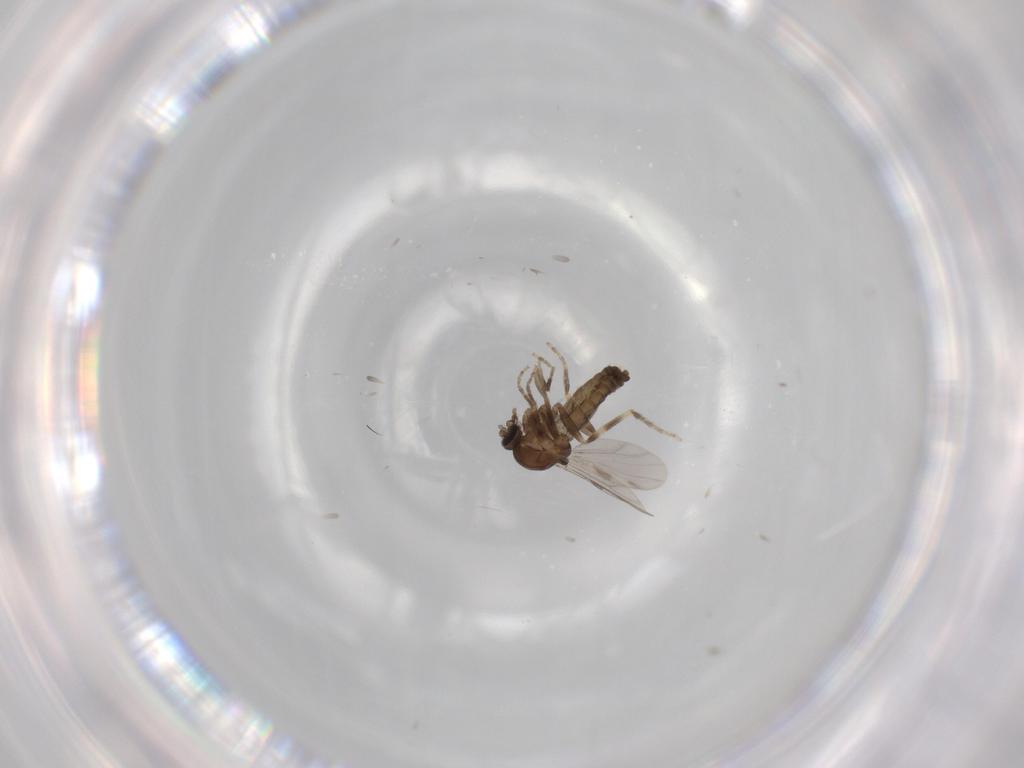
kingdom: Animalia
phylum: Arthropoda
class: Insecta
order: Diptera
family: Ceratopogonidae
